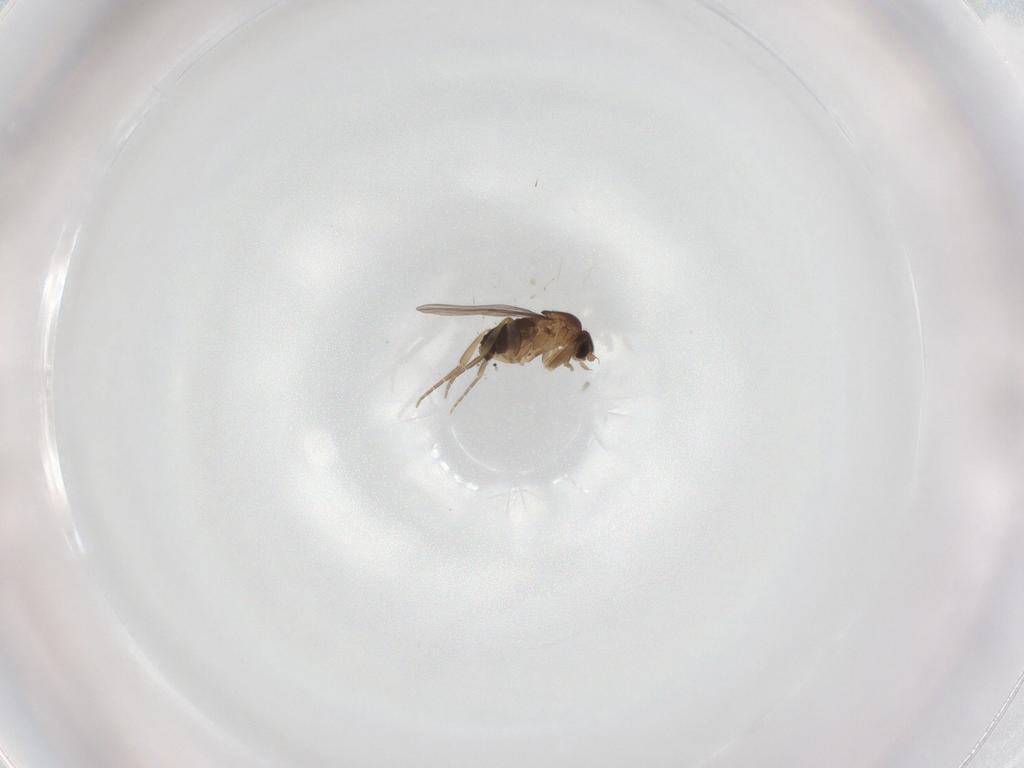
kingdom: Animalia
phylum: Arthropoda
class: Insecta
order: Diptera
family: Phoridae
